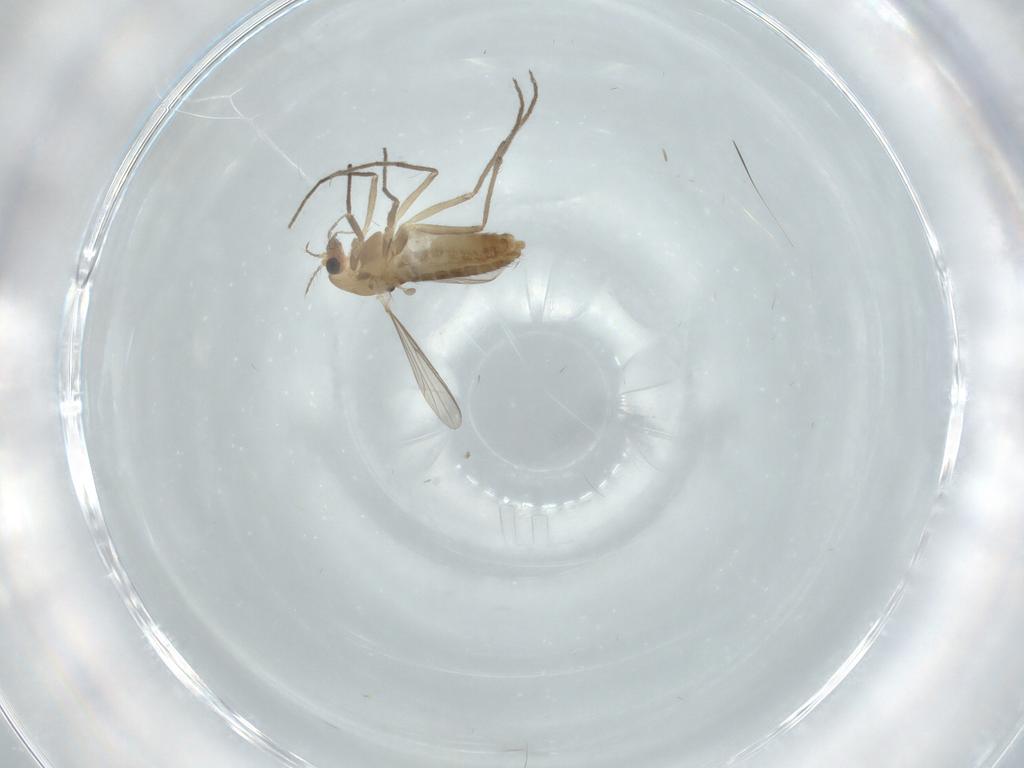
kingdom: Animalia
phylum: Arthropoda
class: Insecta
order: Diptera
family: Chironomidae
